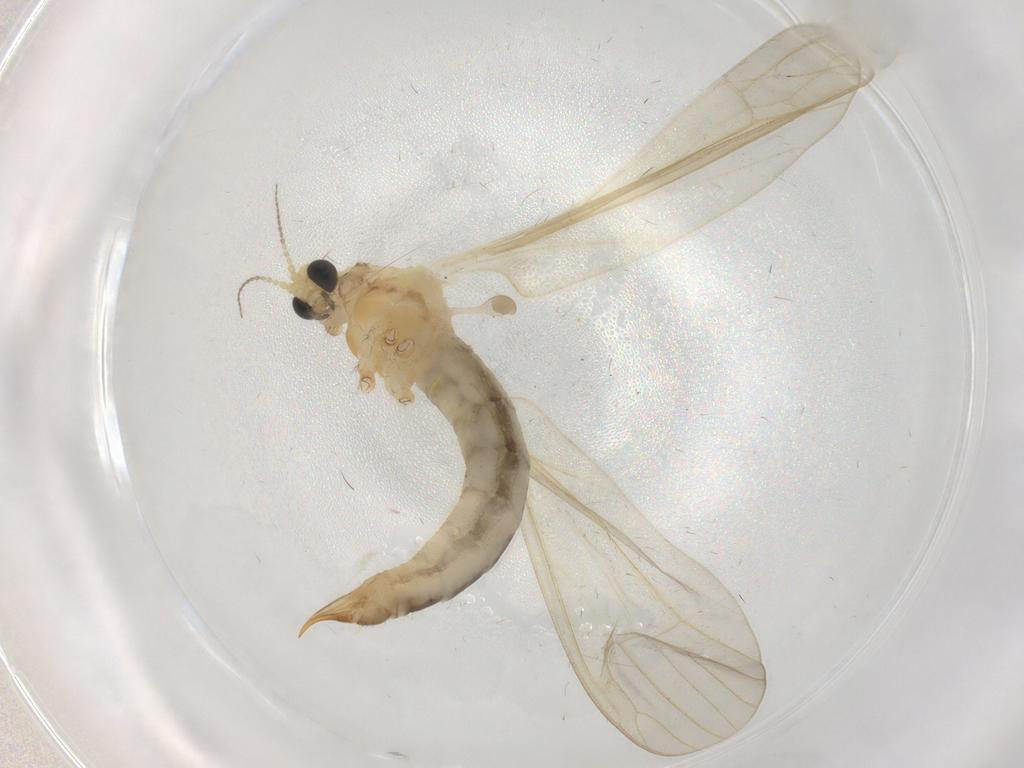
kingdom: Animalia
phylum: Arthropoda
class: Insecta
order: Diptera
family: Limoniidae
